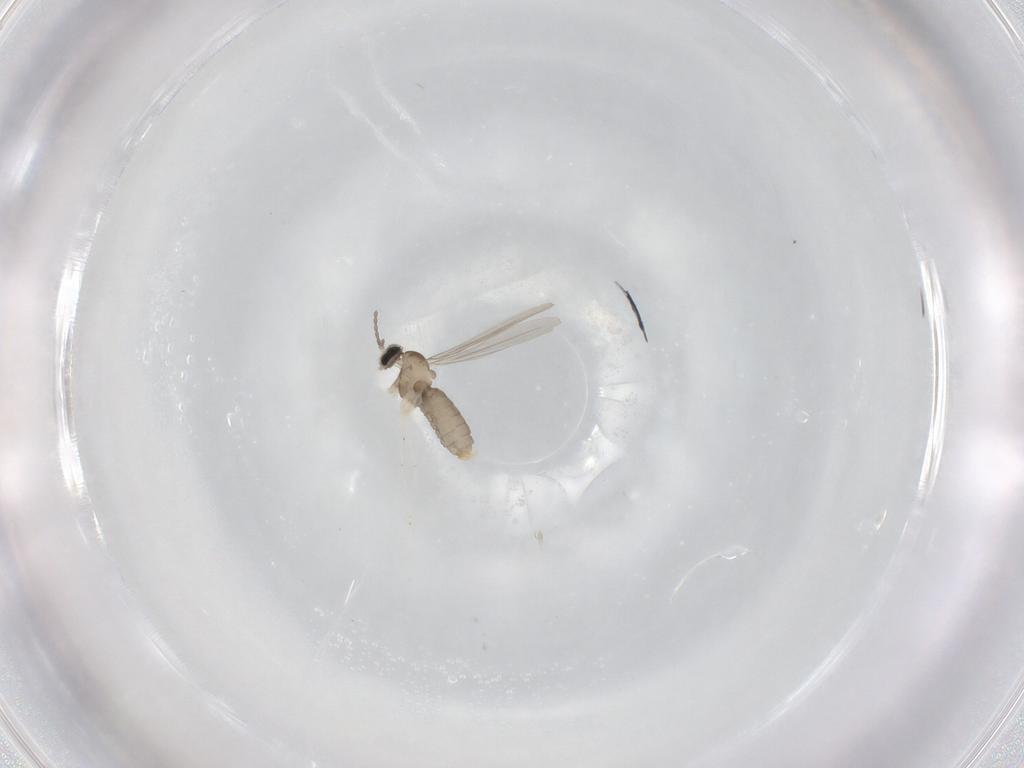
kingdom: Animalia
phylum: Arthropoda
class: Insecta
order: Diptera
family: Cecidomyiidae
